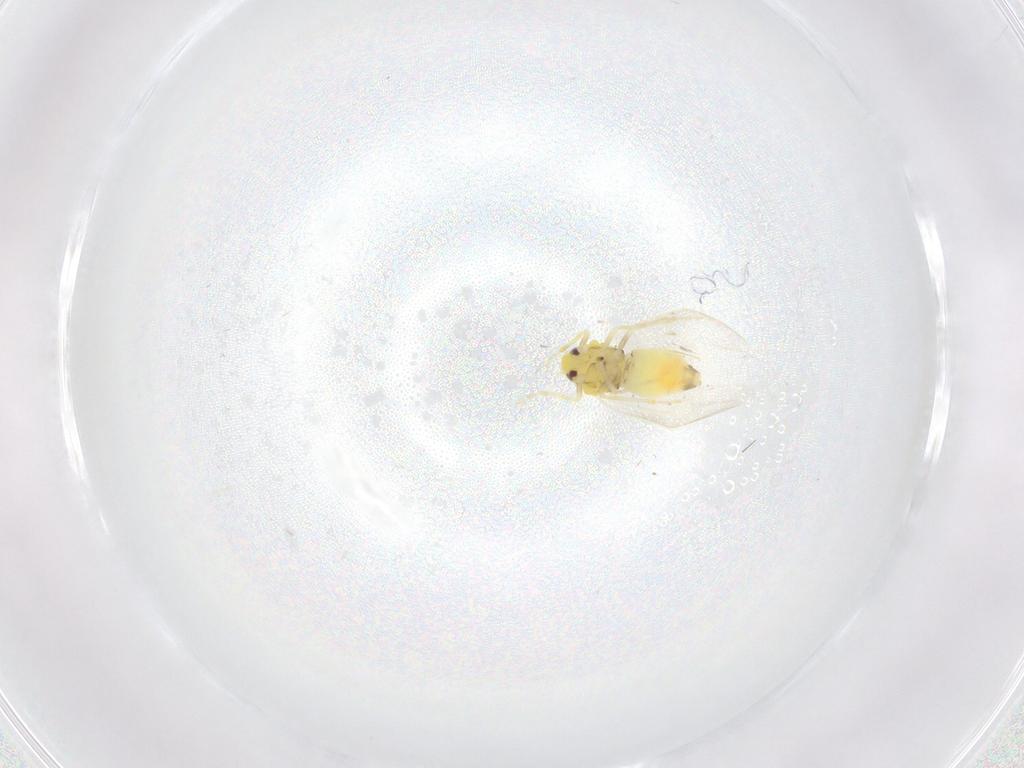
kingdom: Animalia
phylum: Arthropoda
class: Insecta
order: Hemiptera
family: Aleyrodidae
